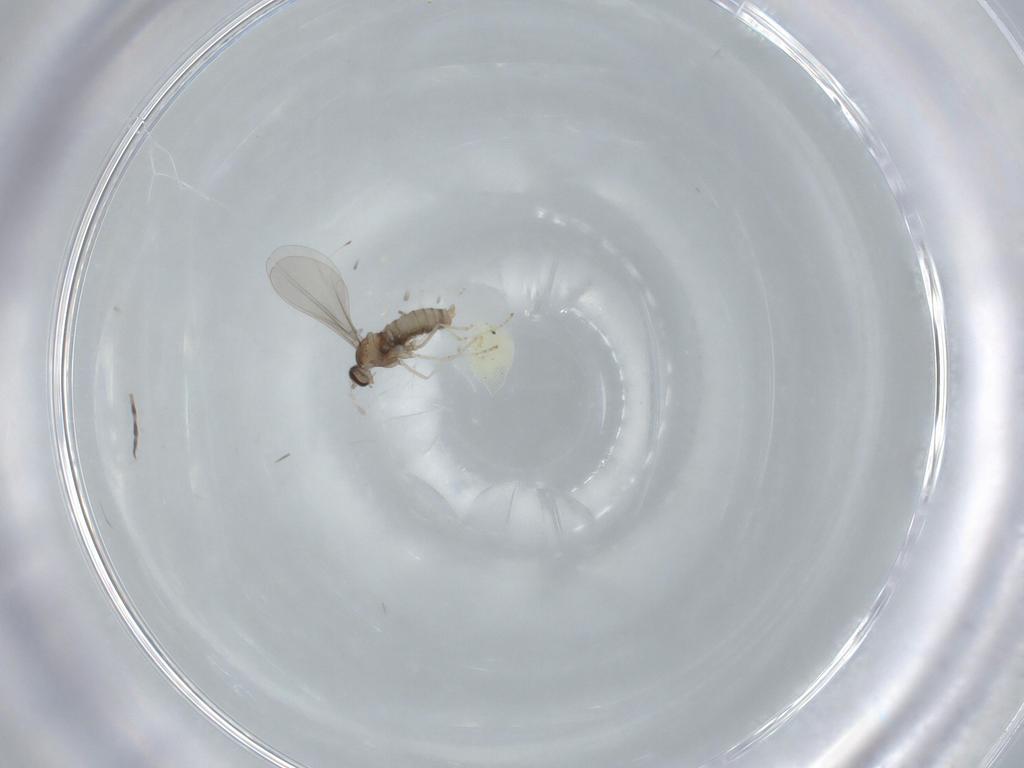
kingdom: Animalia
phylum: Arthropoda
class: Insecta
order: Diptera
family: Cecidomyiidae
